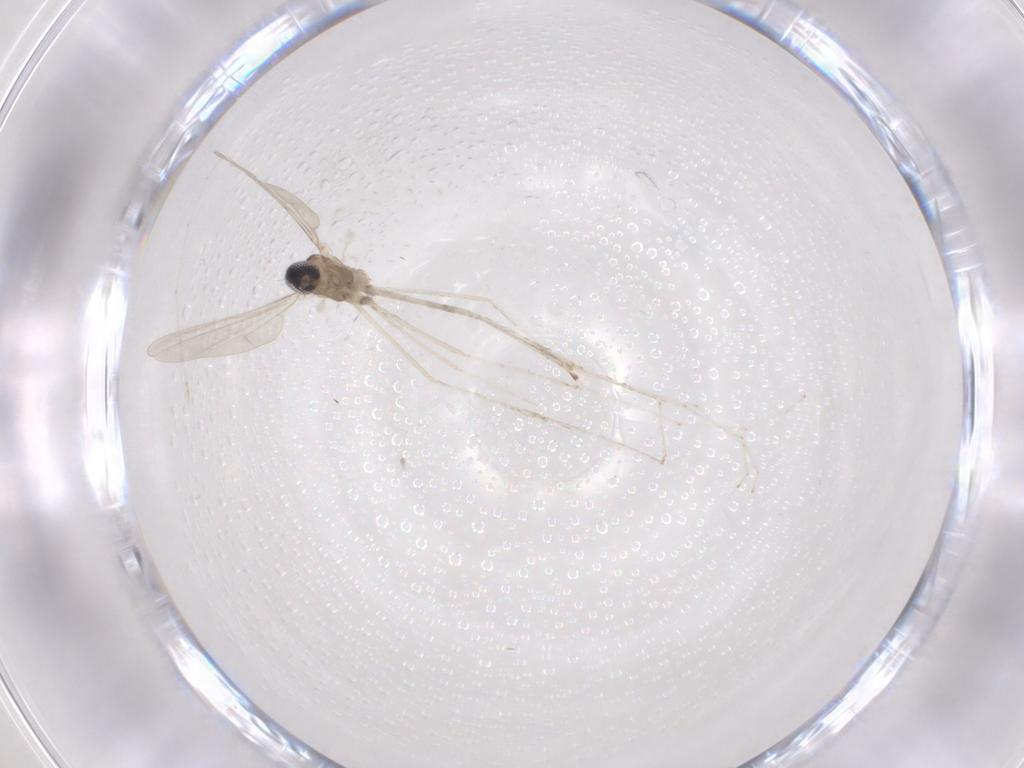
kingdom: Animalia
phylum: Arthropoda
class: Insecta
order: Diptera
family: Cecidomyiidae
